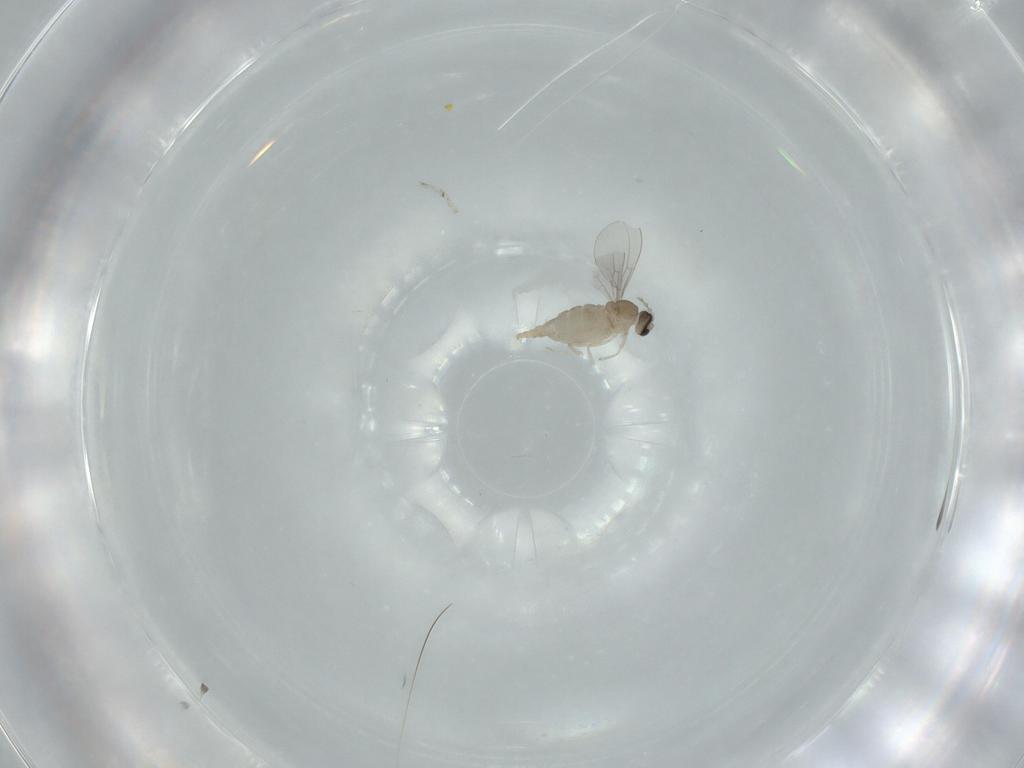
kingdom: Animalia
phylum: Arthropoda
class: Insecta
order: Diptera
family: Cecidomyiidae
